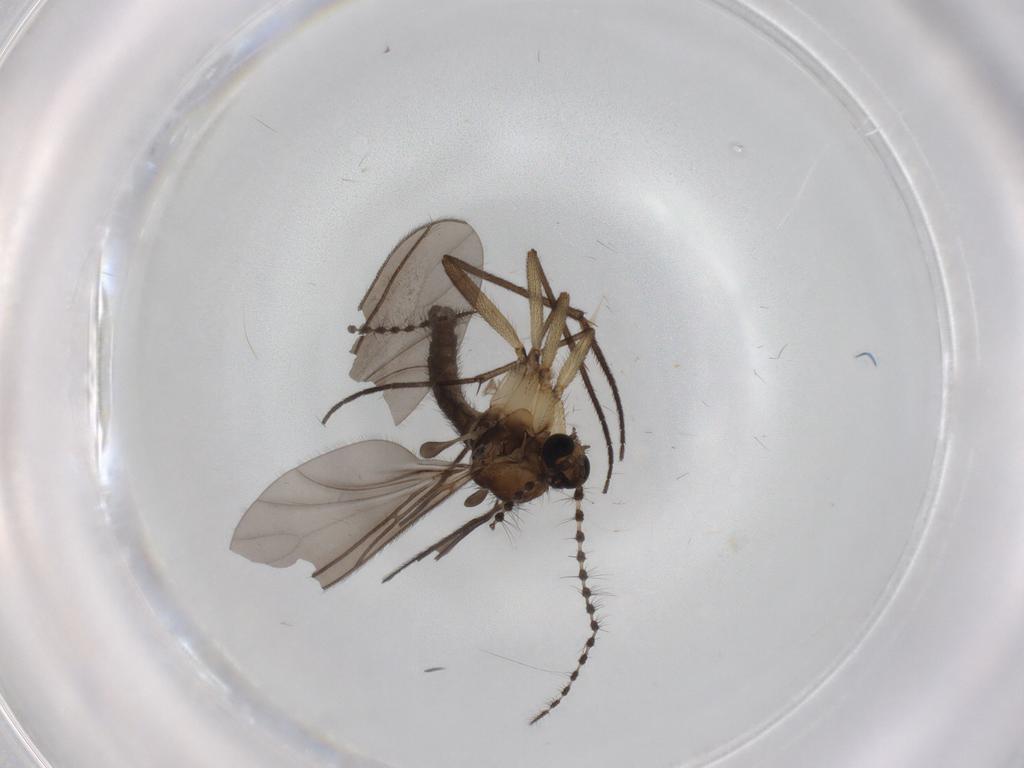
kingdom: Animalia
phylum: Arthropoda
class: Insecta
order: Diptera
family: Sciaridae
